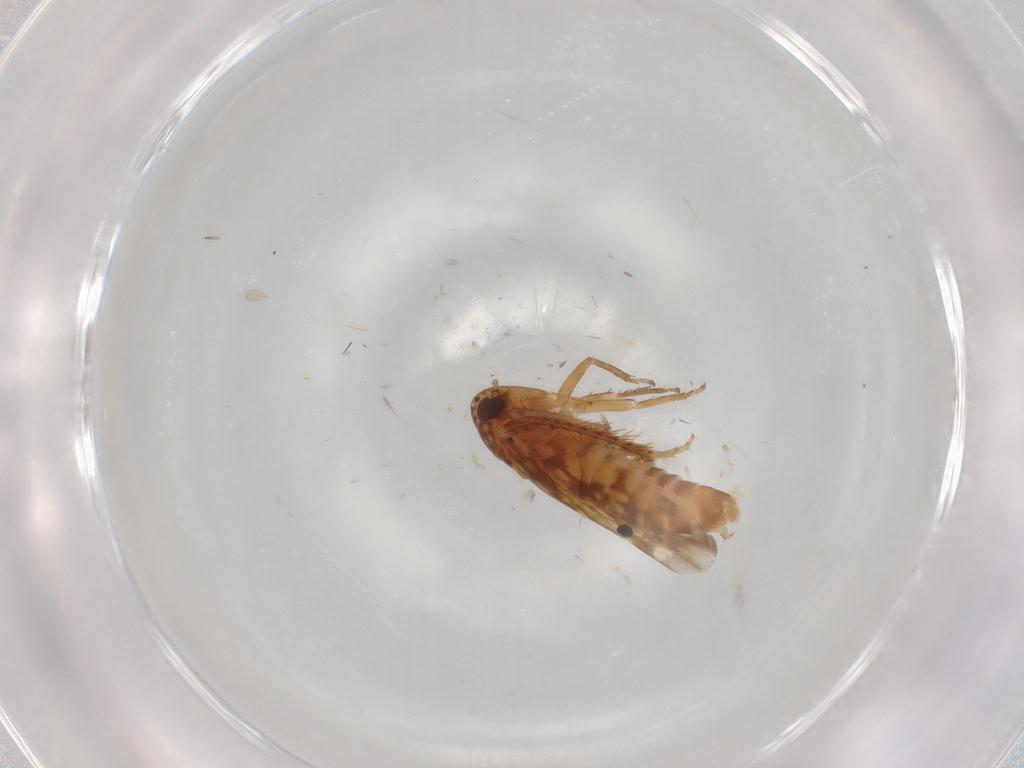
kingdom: Animalia
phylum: Arthropoda
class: Insecta
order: Hemiptera
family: Cicadellidae
